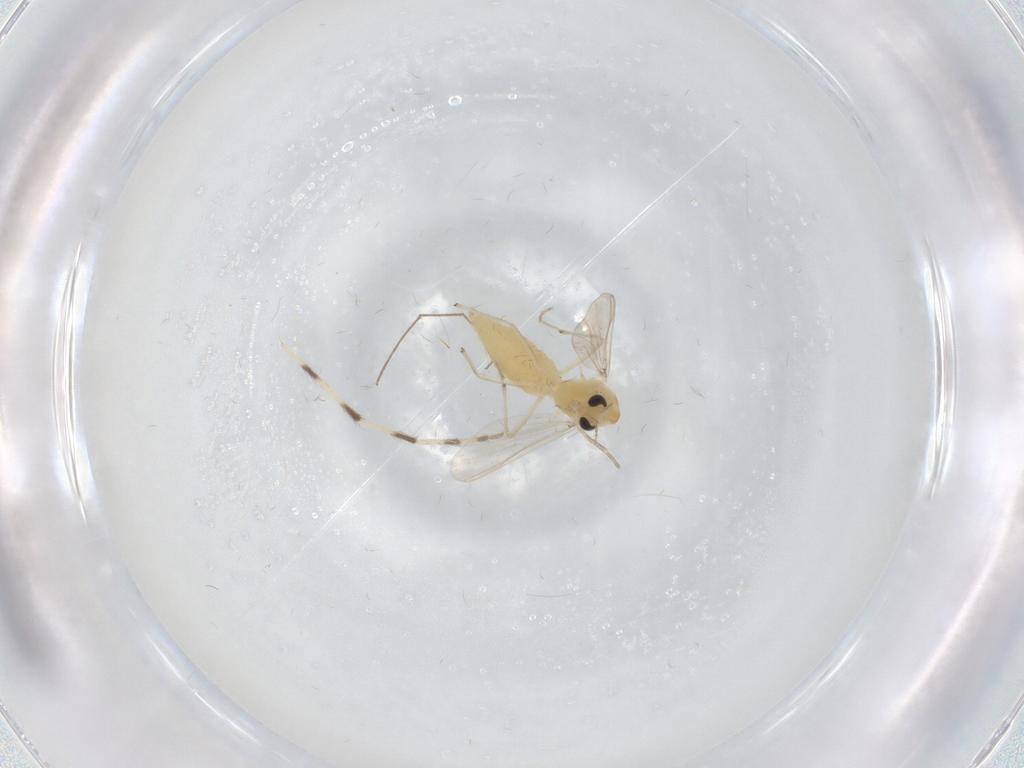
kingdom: Animalia
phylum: Arthropoda
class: Insecta
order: Diptera
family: Chironomidae
